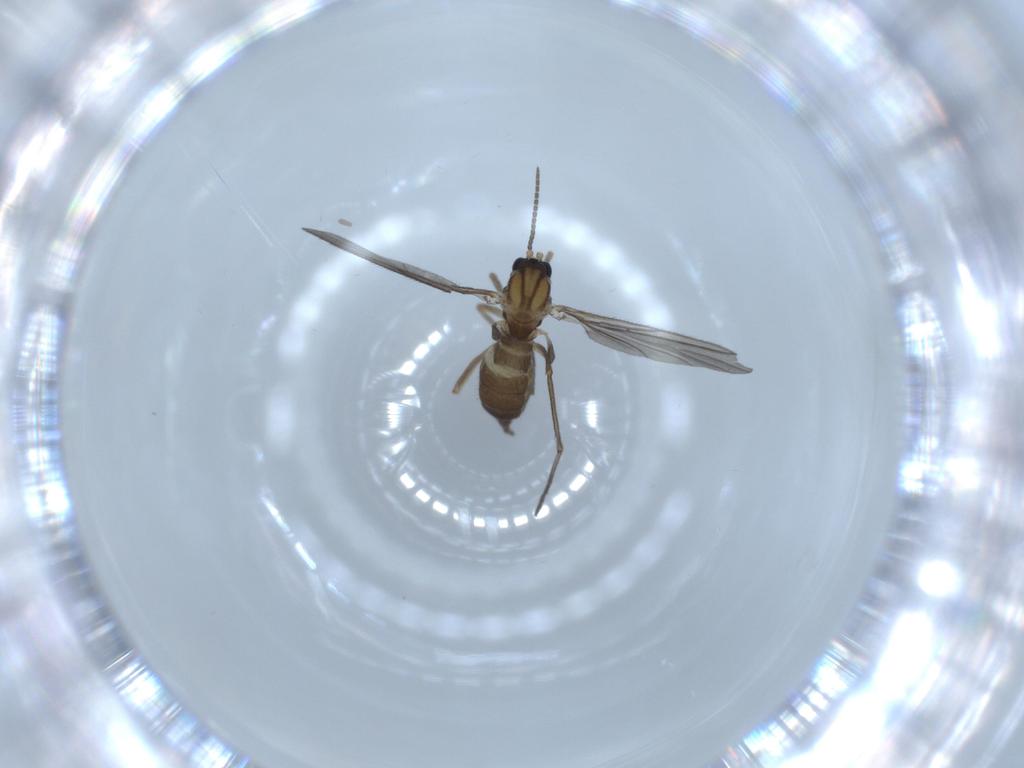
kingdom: Animalia
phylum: Arthropoda
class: Insecta
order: Diptera
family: Sciaridae
